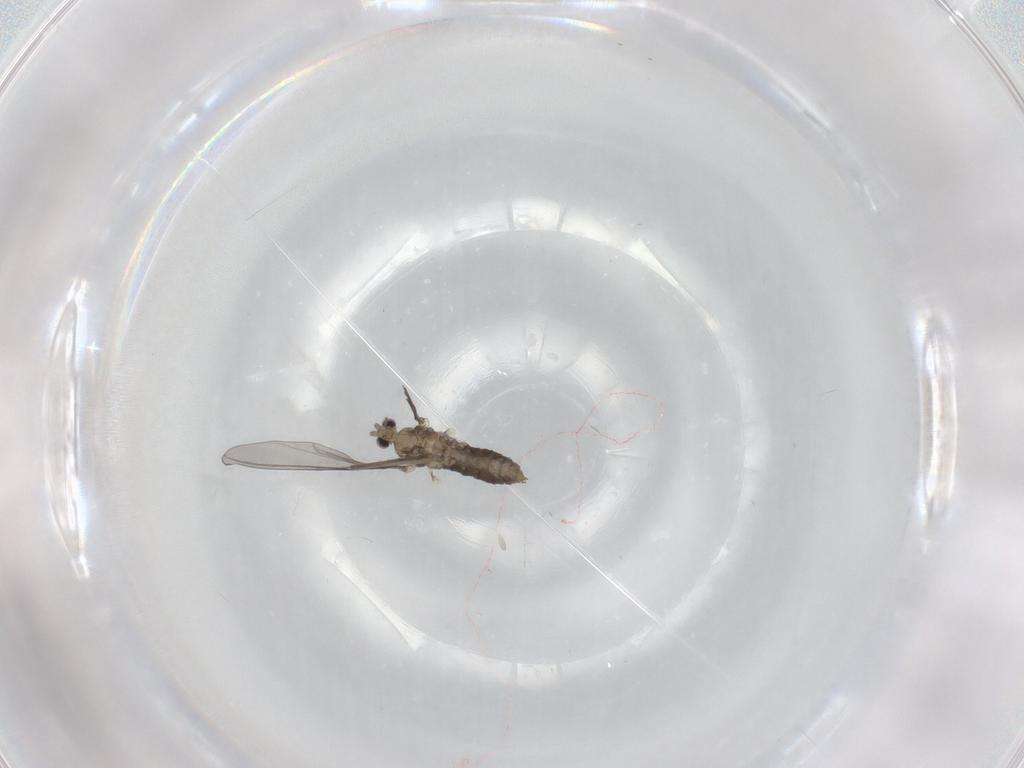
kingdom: Animalia
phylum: Arthropoda
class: Insecta
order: Diptera
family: Cecidomyiidae
